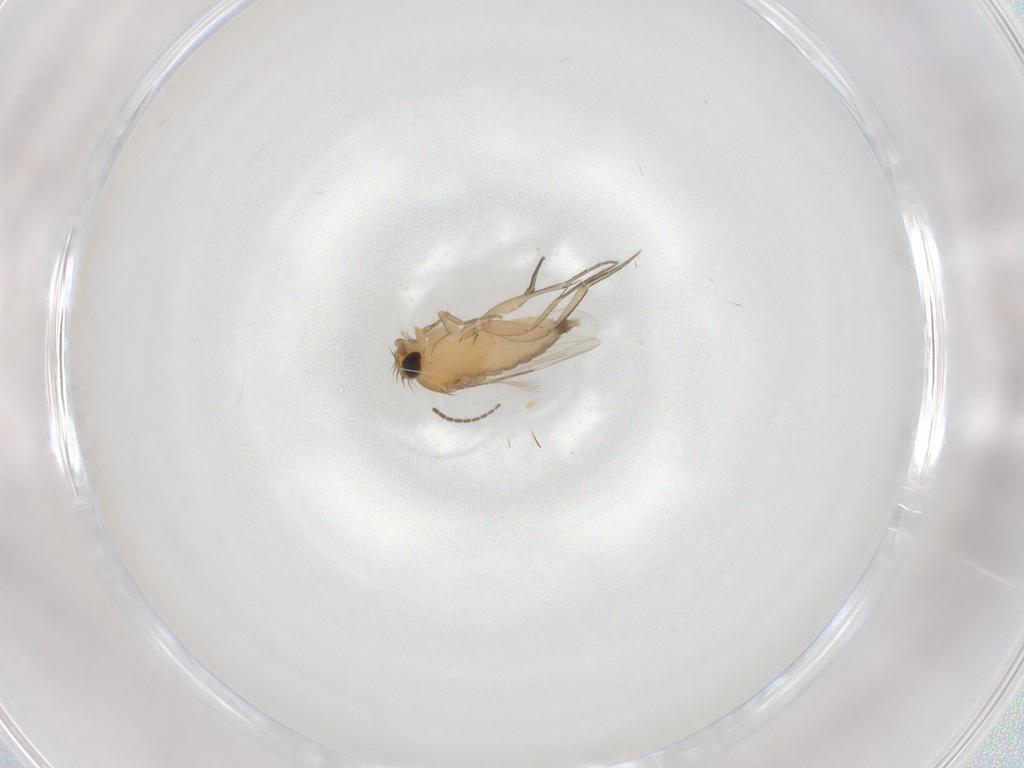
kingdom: Animalia
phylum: Arthropoda
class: Insecta
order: Diptera
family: Phoridae
